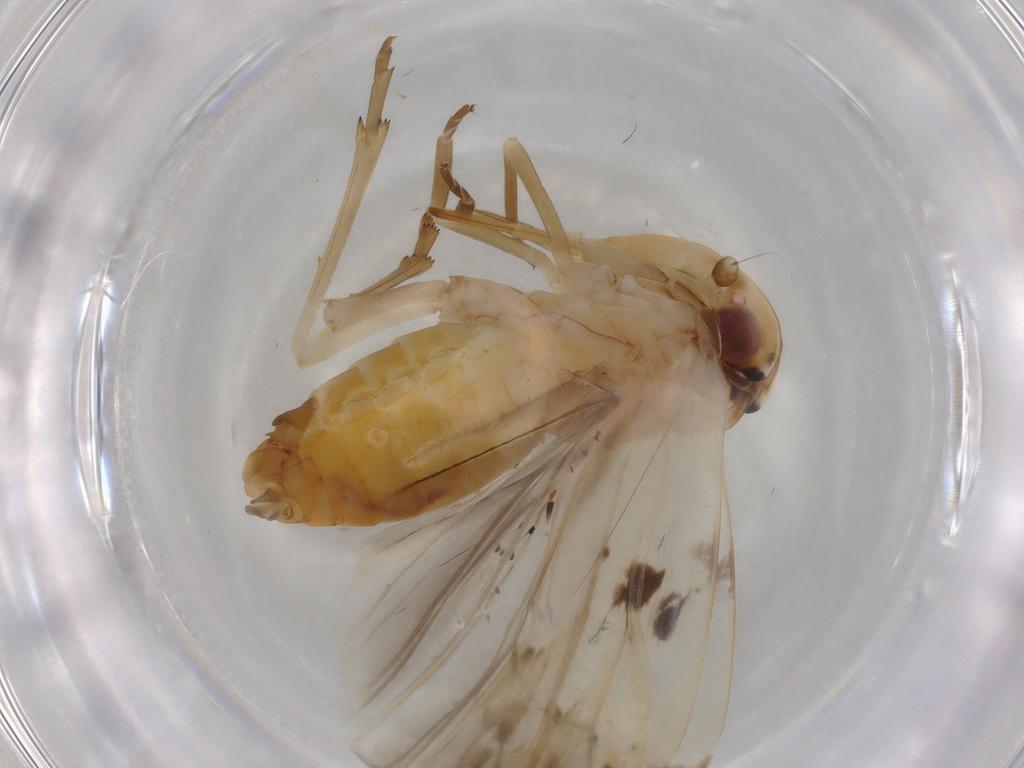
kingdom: Animalia
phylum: Arthropoda
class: Insecta
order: Hemiptera
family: Achilidae
